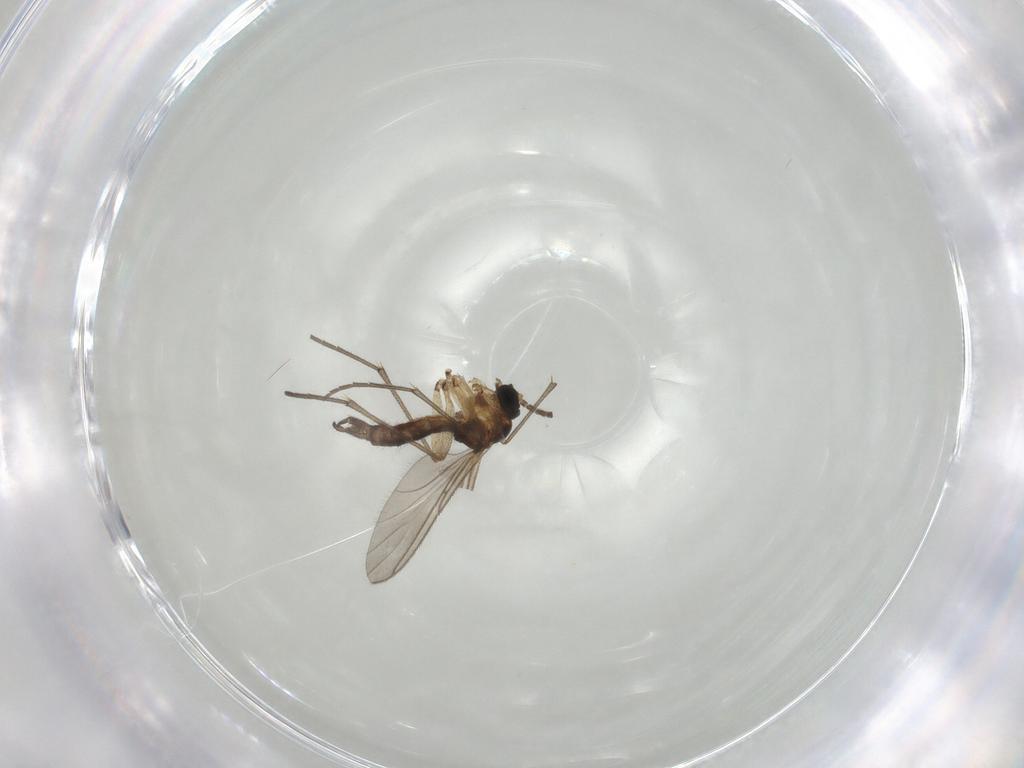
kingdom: Animalia
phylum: Arthropoda
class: Insecta
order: Diptera
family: Sciaridae
